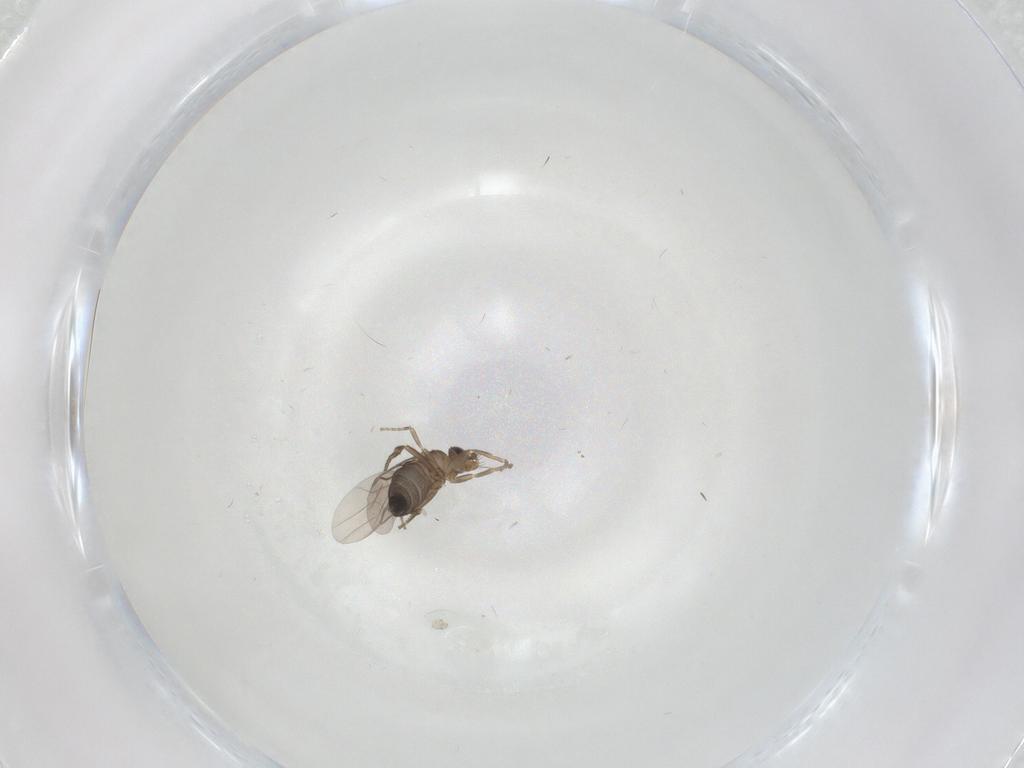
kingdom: Animalia
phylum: Arthropoda
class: Insecta
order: Diptera
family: Phoridae
